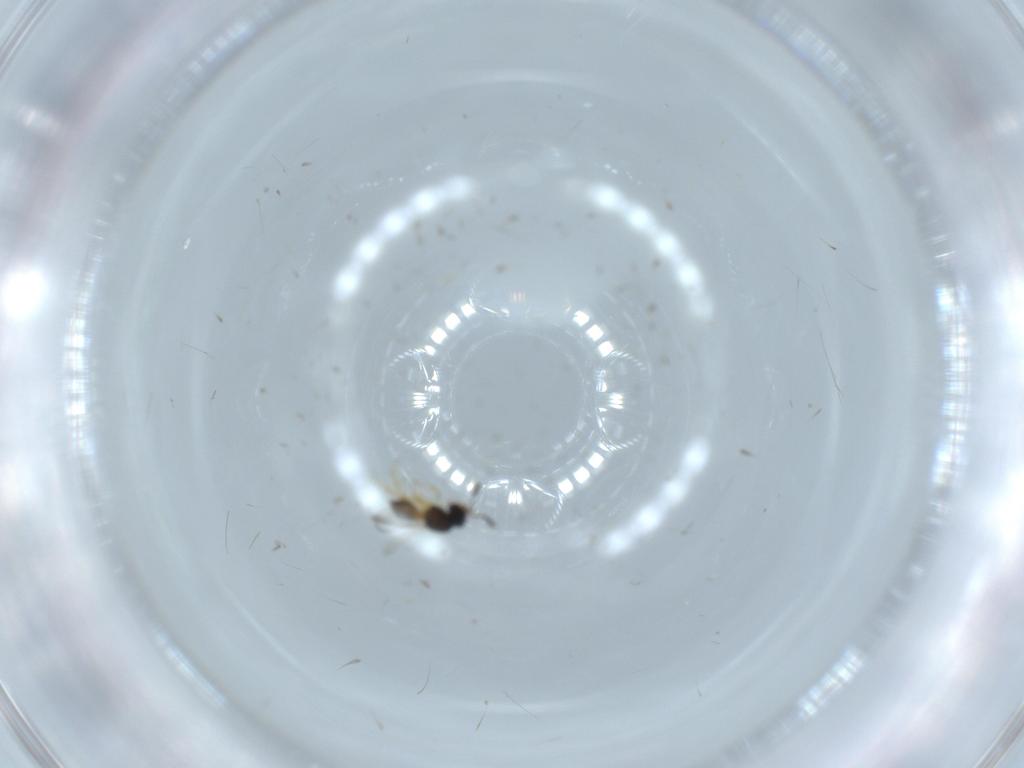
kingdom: Animalia
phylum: Arthropoda
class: Insecta
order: Hymenoptera
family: Scelionidae
